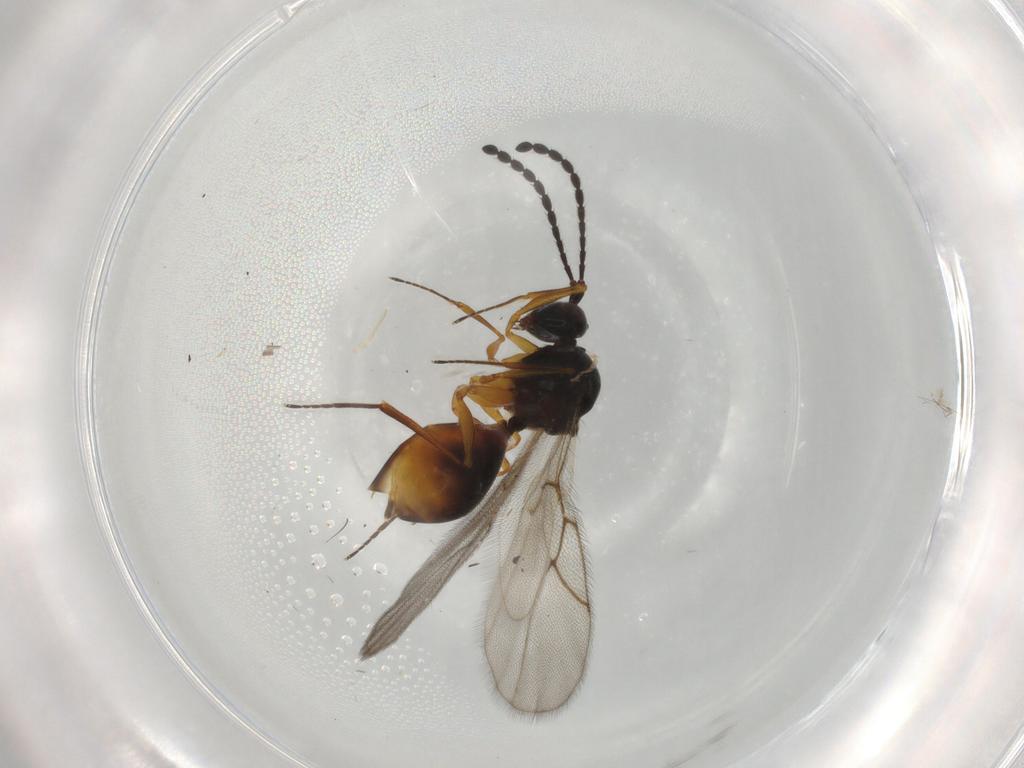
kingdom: Animalia
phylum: Arthropoda
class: Insecta
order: Hymenoptera
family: Figitidae
